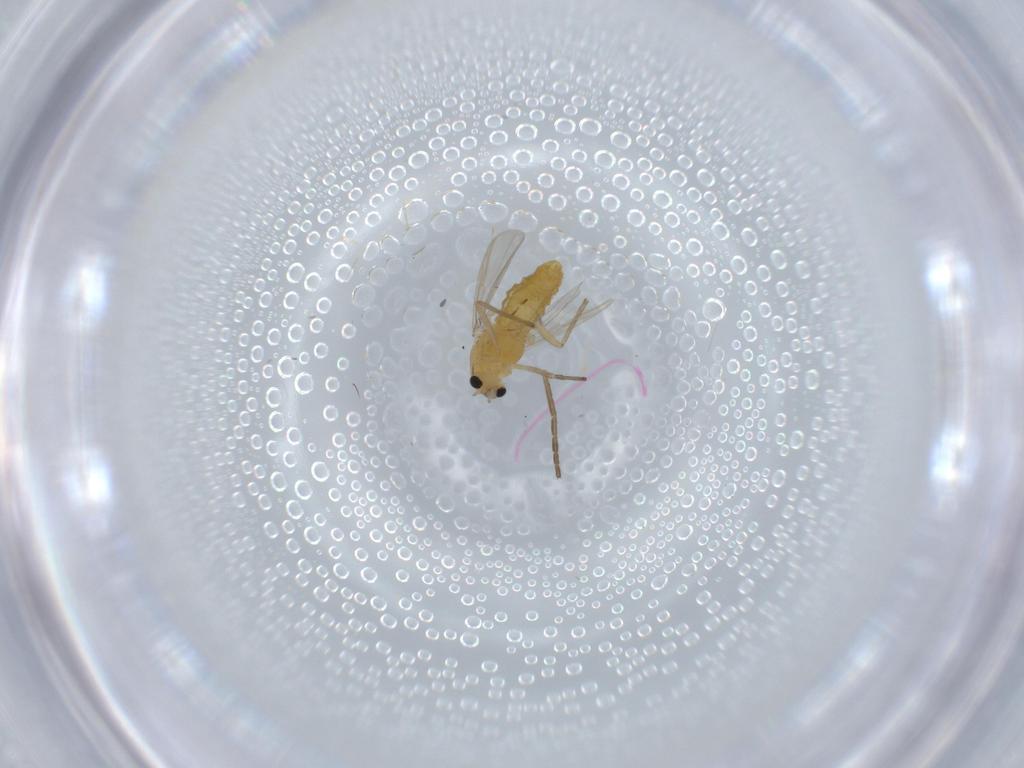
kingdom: Animalia
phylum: Arthropoda
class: Insecta
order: Diptera
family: Chironomidae
